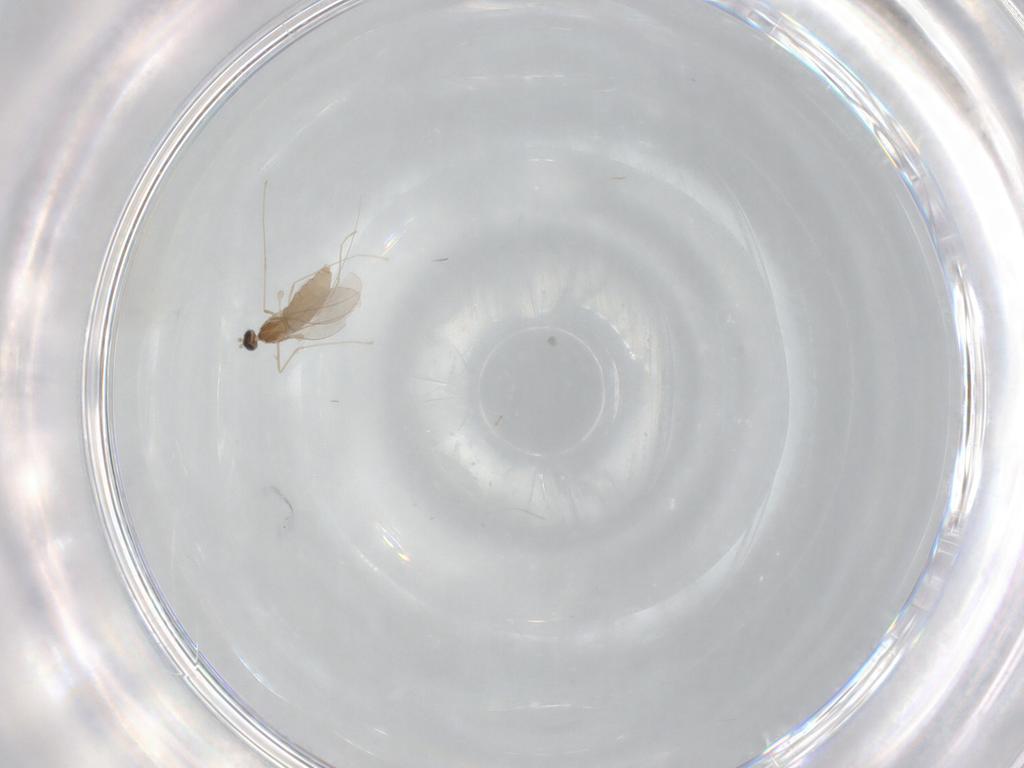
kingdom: Animalia
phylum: Arthropoda
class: Insecta
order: Diptera
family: Cecidomyiidae
